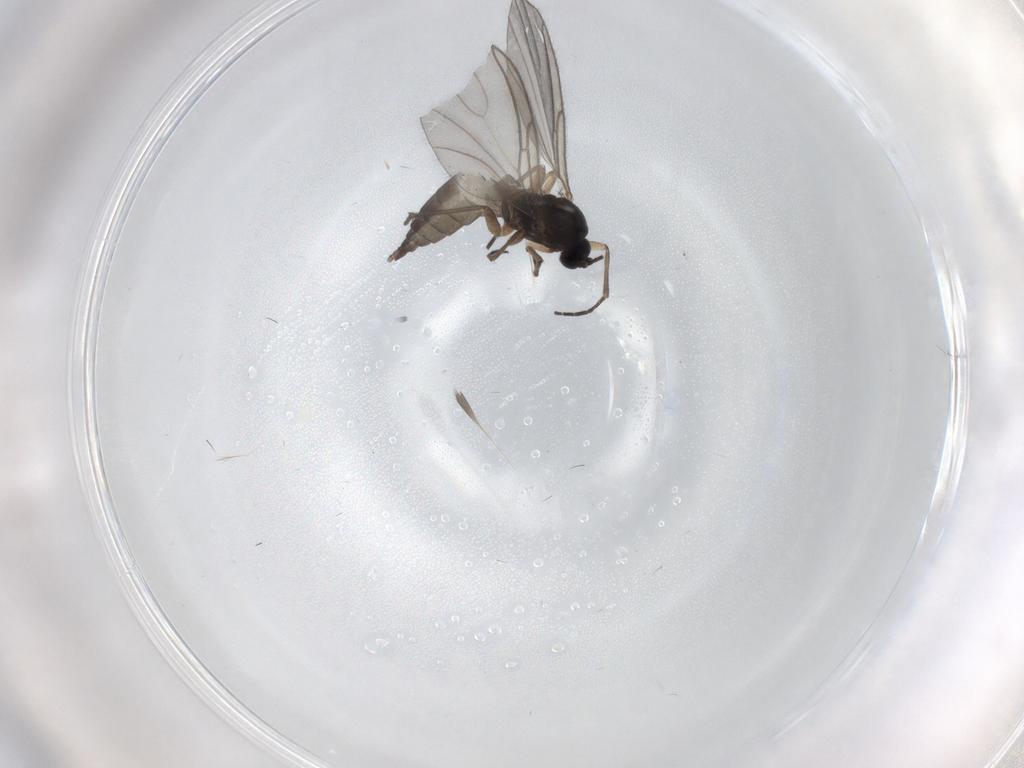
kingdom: Animalia
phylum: Arthropoda
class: Insecta
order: Diptera
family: Sciaridae
